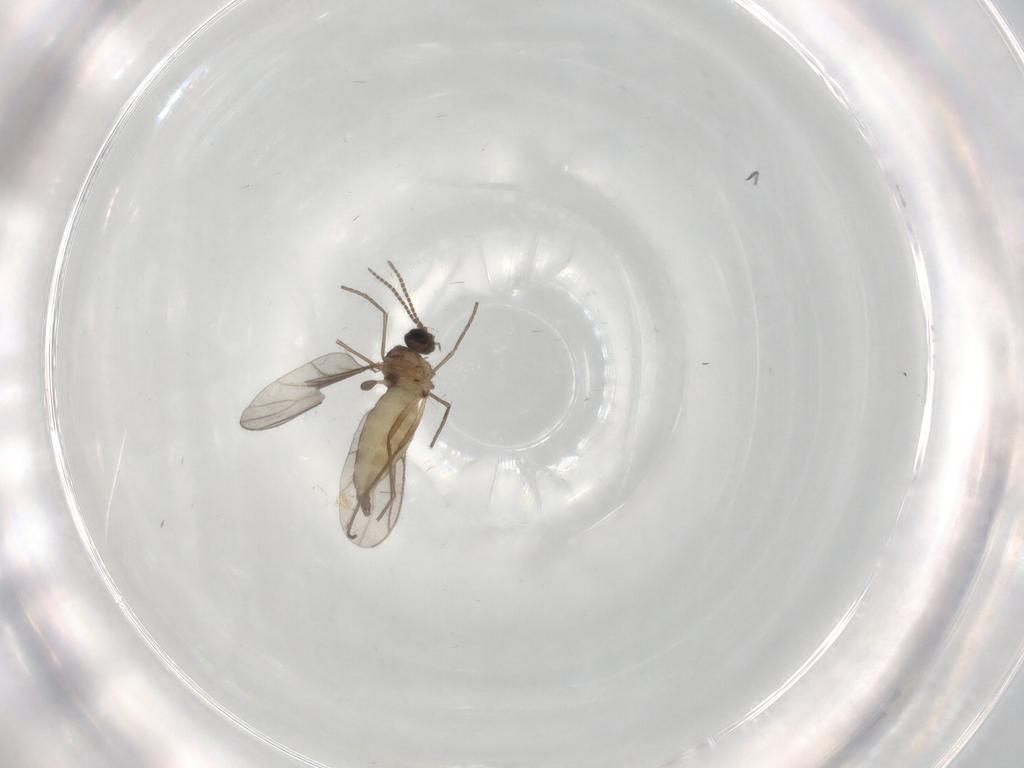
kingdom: Animalia
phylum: Arthropoda
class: Insecta
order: Diptera
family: Sciaridae
